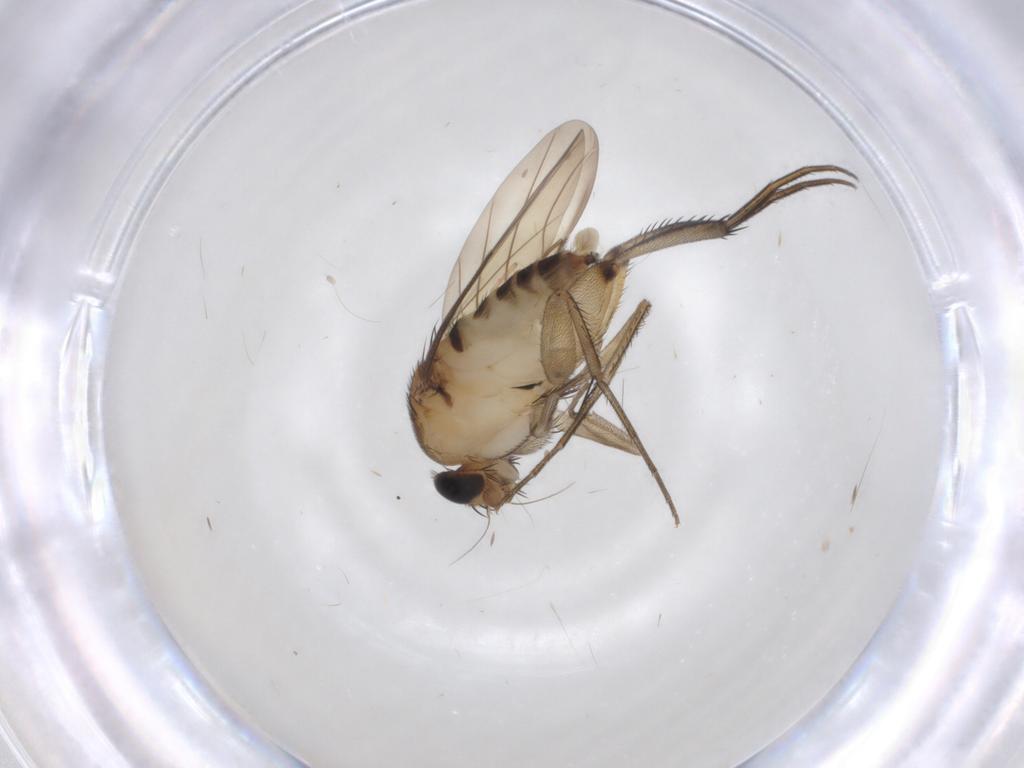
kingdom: Animalia
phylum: Arthropoda
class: Insecta
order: Diptera
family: Phoridae
